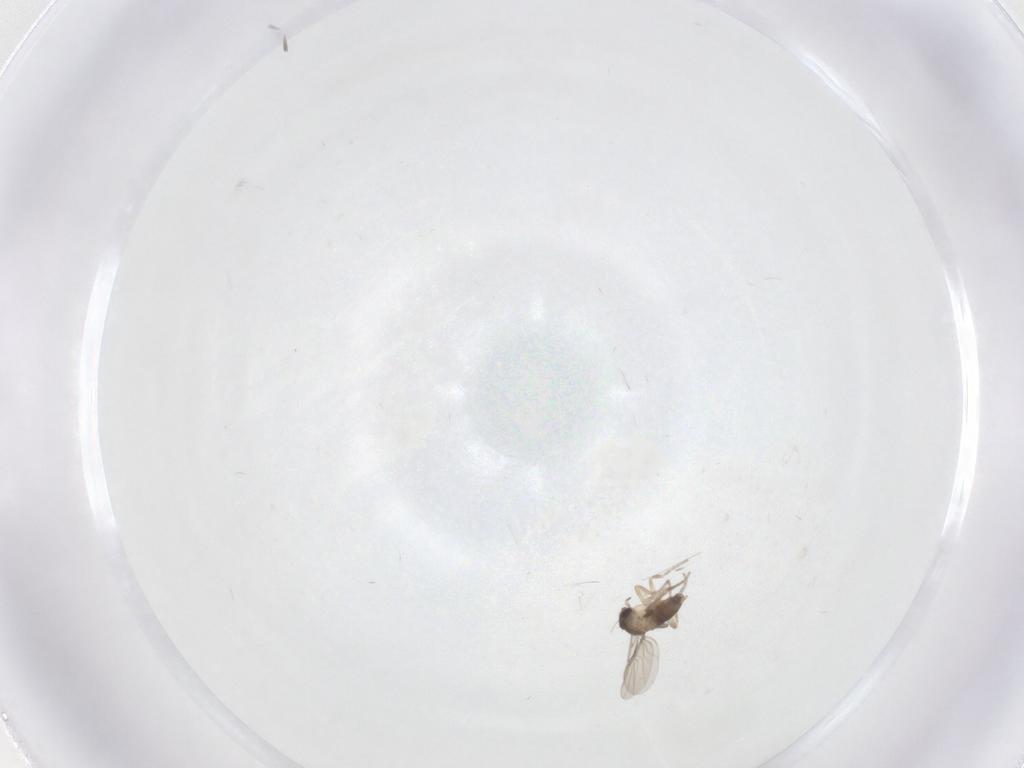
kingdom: Animalia
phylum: Arthropoda
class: Insecta
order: Diptera
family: Phoridae
